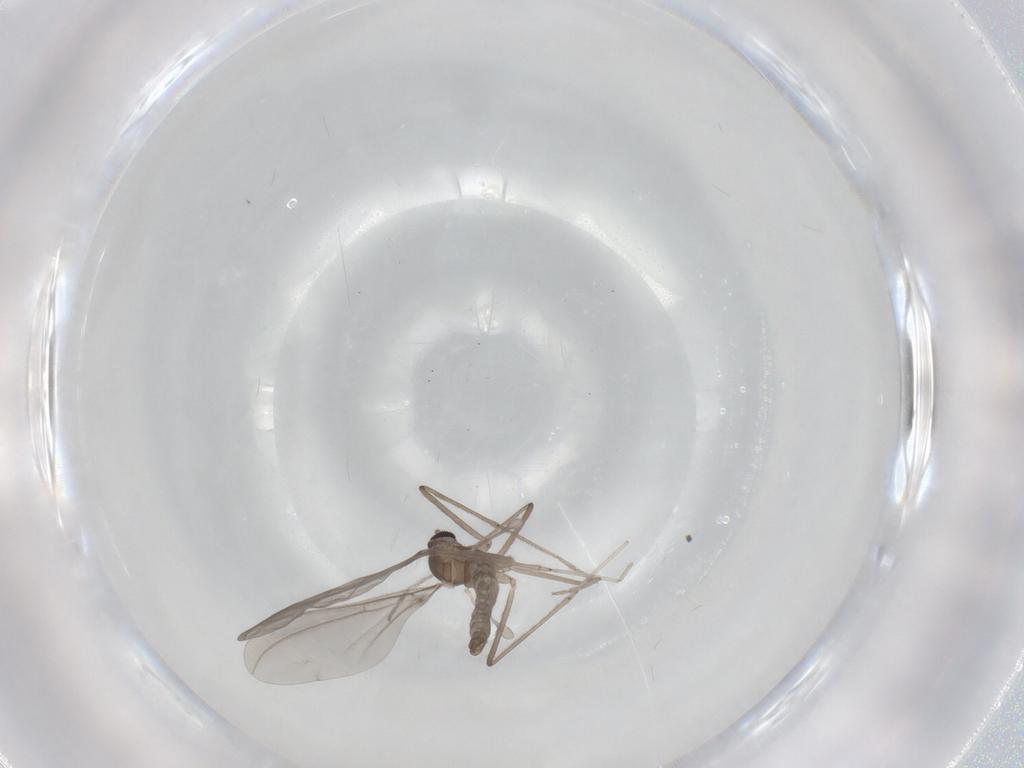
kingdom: Animalia
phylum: Arthropoda
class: Insecta
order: Diptera
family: Cecidomyiidae
